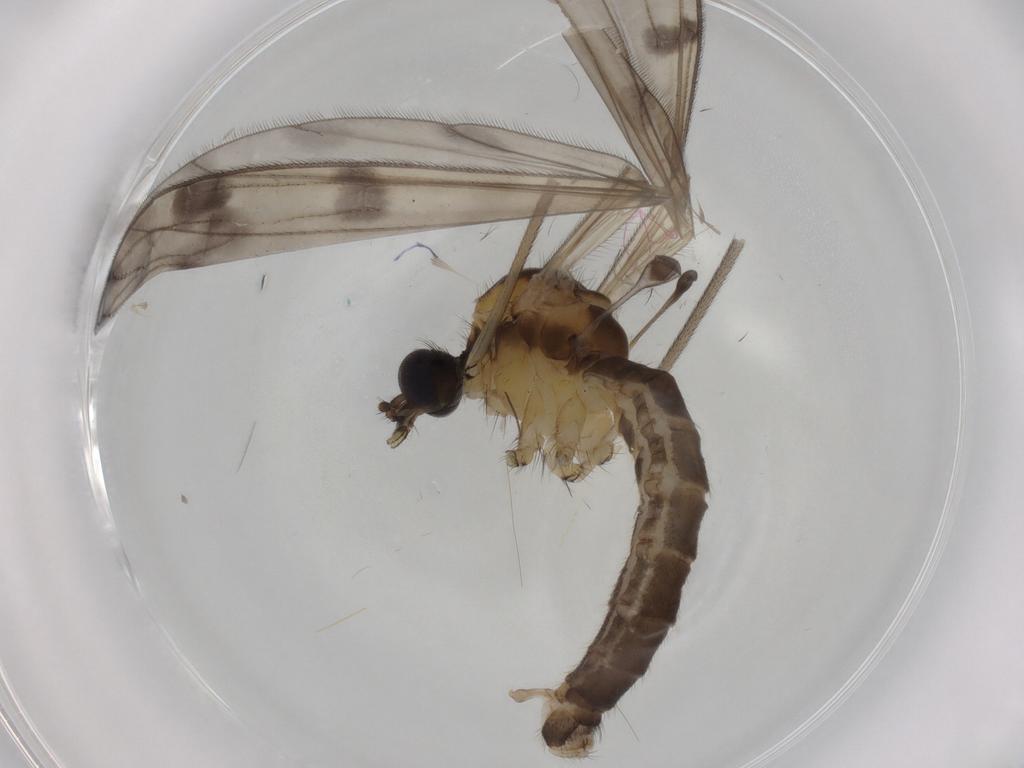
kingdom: Animalia
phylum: Arthropoda
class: Insecta
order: Diptera
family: Limoniidae
